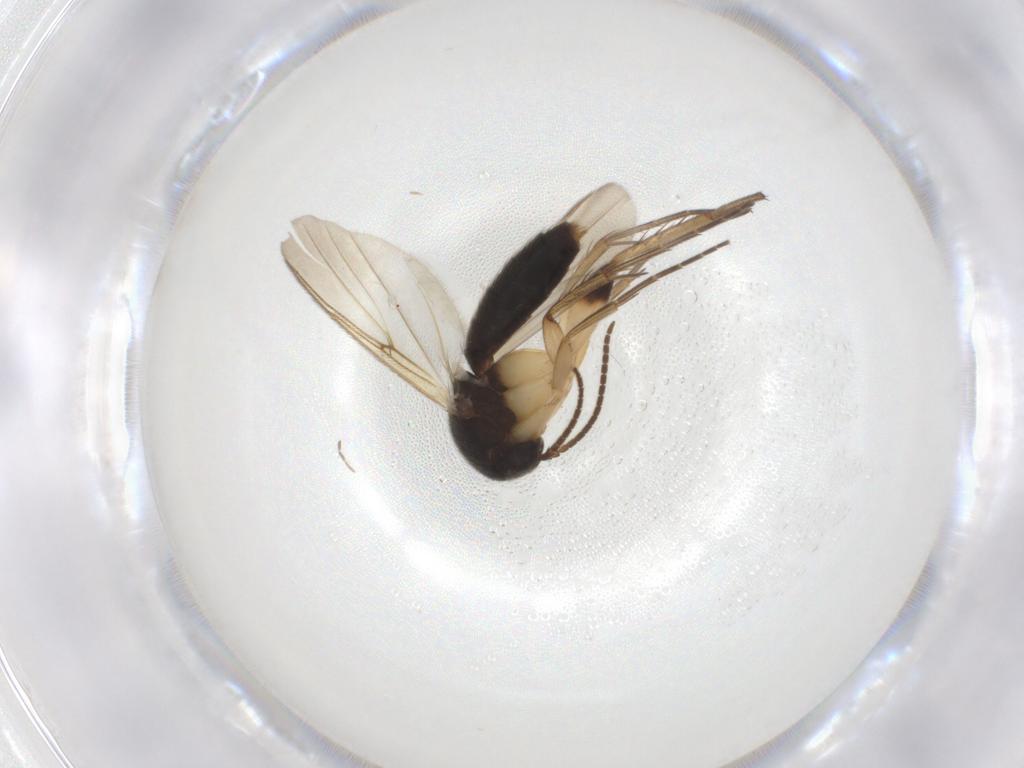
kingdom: Animalia
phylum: Arthropoda
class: Insecta
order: Diptera
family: Mycetophilidae
